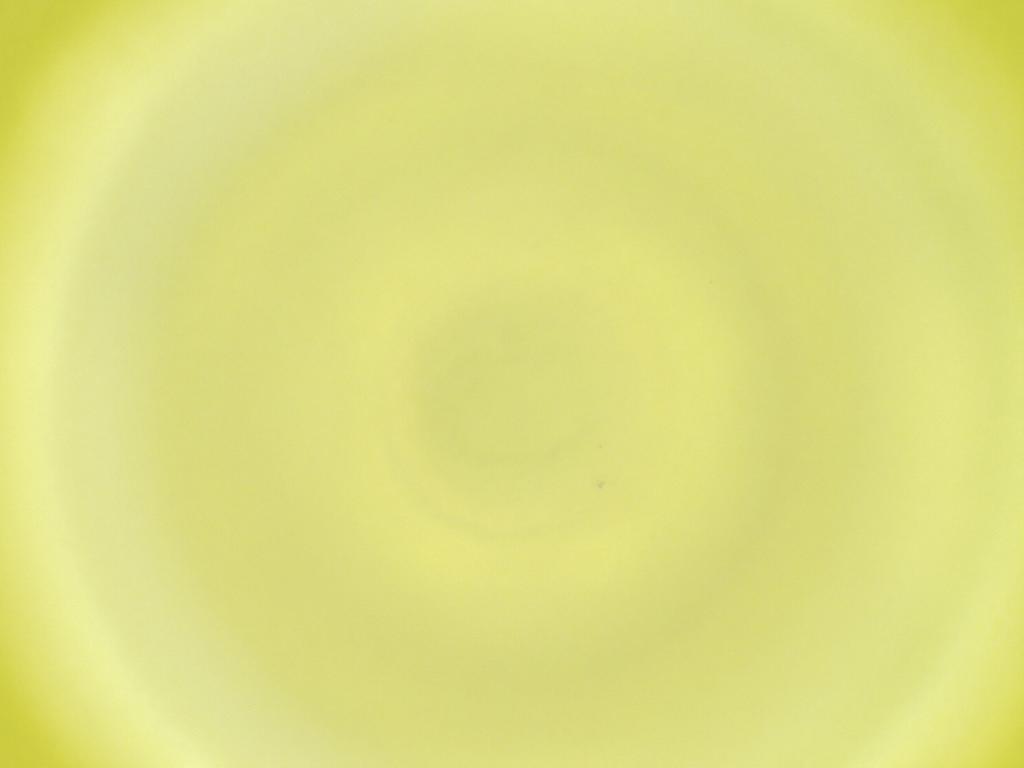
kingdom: Animalia
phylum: Arthropoda
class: Insecta
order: Diptera
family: Cecidomyiidae
